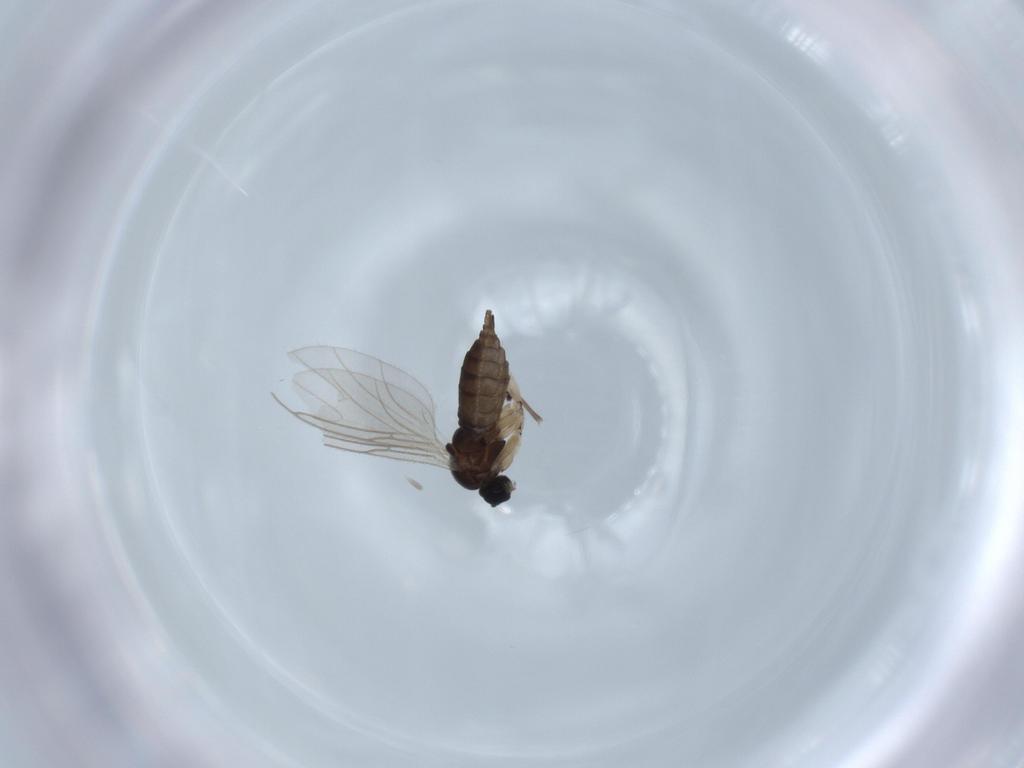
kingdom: Animalia
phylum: Arthropoda
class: Insecta
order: Diptera
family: Sciaridae
